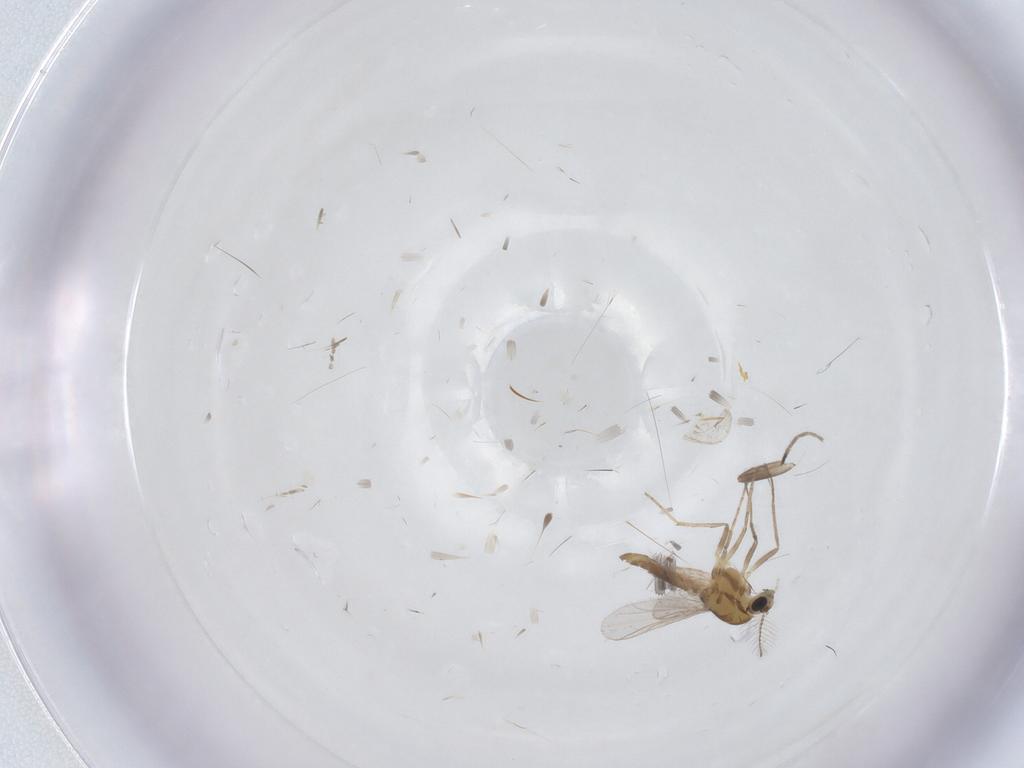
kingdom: Animalia
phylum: Arthropoda
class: Insecta
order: Diptera
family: Chironomidae
